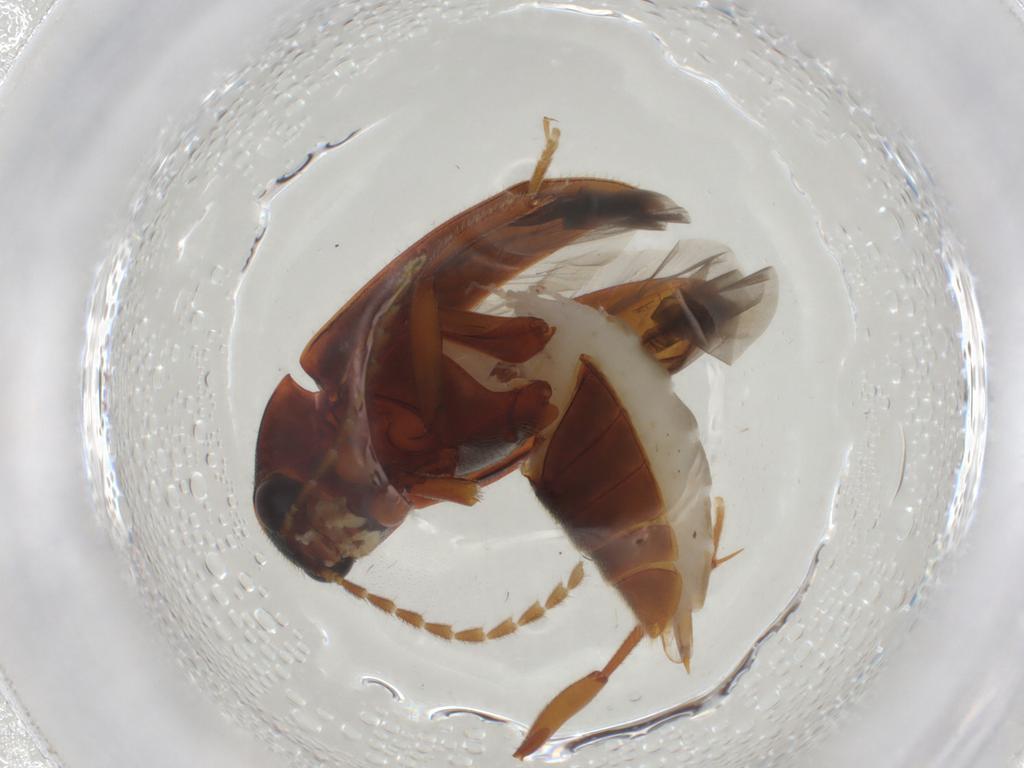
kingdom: Animalia
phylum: Arthropoda
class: Insecta
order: Coleoptera
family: Ptilodactylidae
